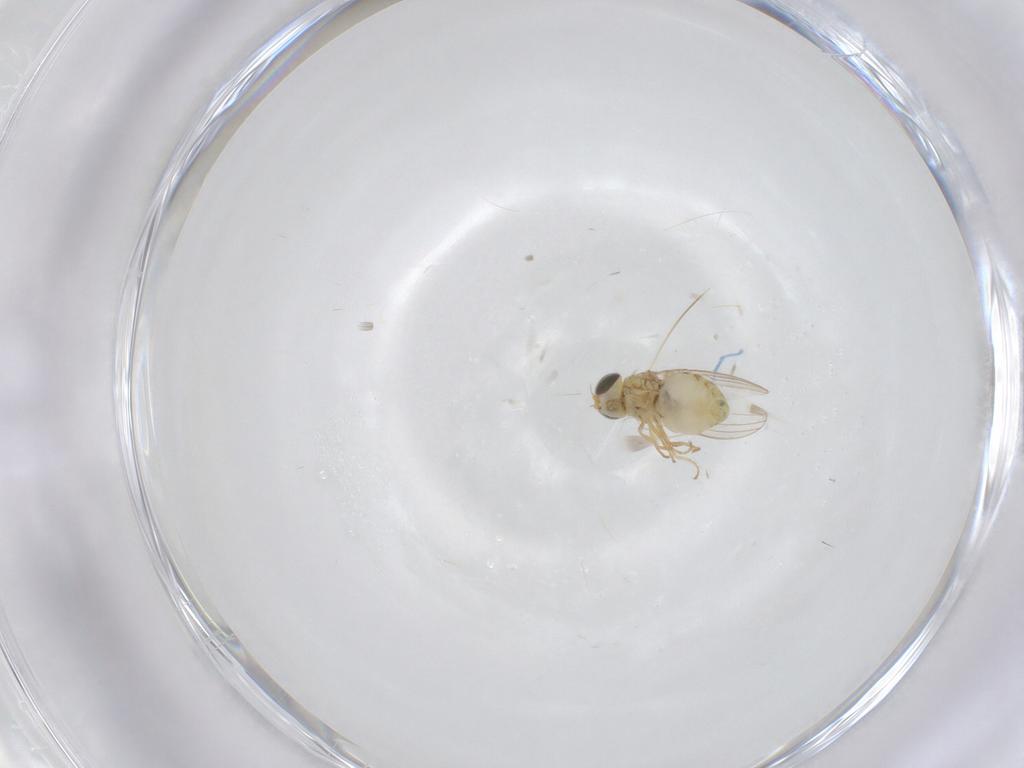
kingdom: Animalia
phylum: Arthropoda
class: Insecta
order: Diptera
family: Chyromyidae
